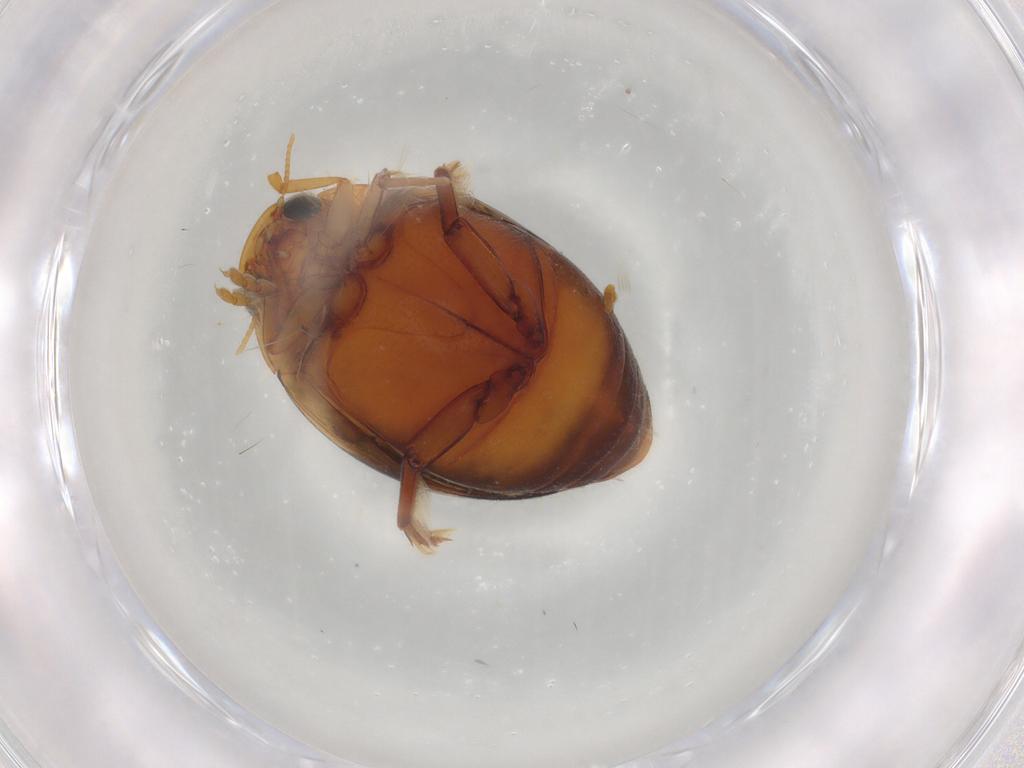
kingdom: Animalia
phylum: Arthropoda
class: Insecta
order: Coleoptera
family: Dytiscidae
